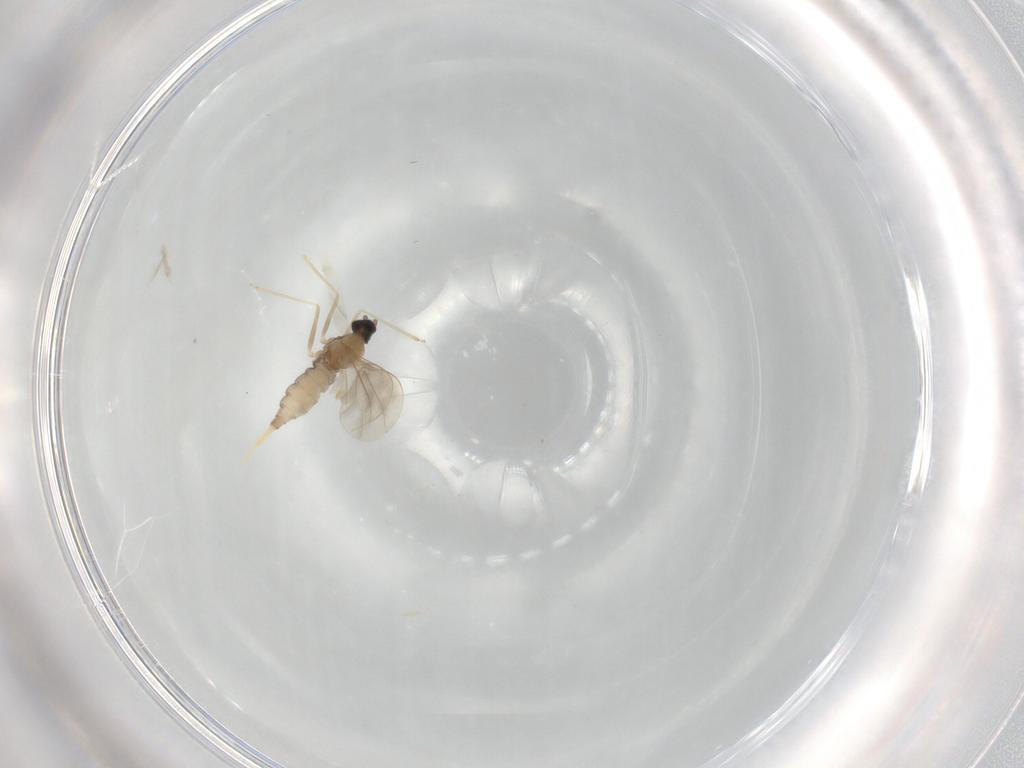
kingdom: Animalia
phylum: Arthropoda
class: Insecta
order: Diptera
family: Cecidomyiidae
